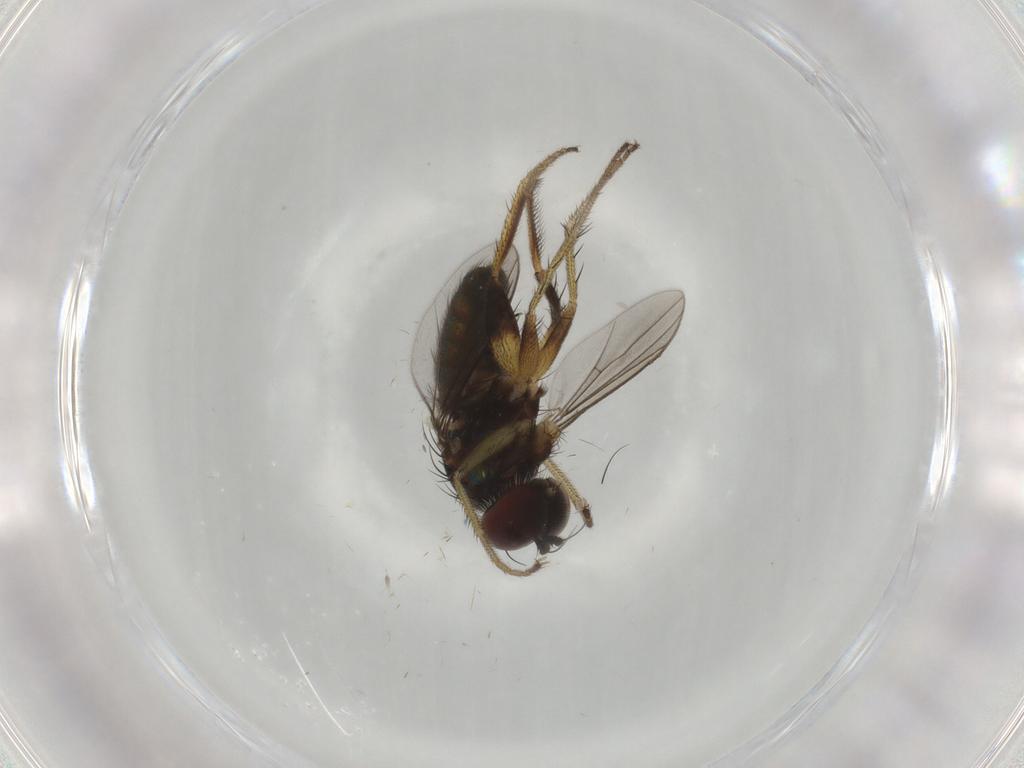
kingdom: Animalia
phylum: Arthropoda
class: Insecta
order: Diptera
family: Dolichopodidae
